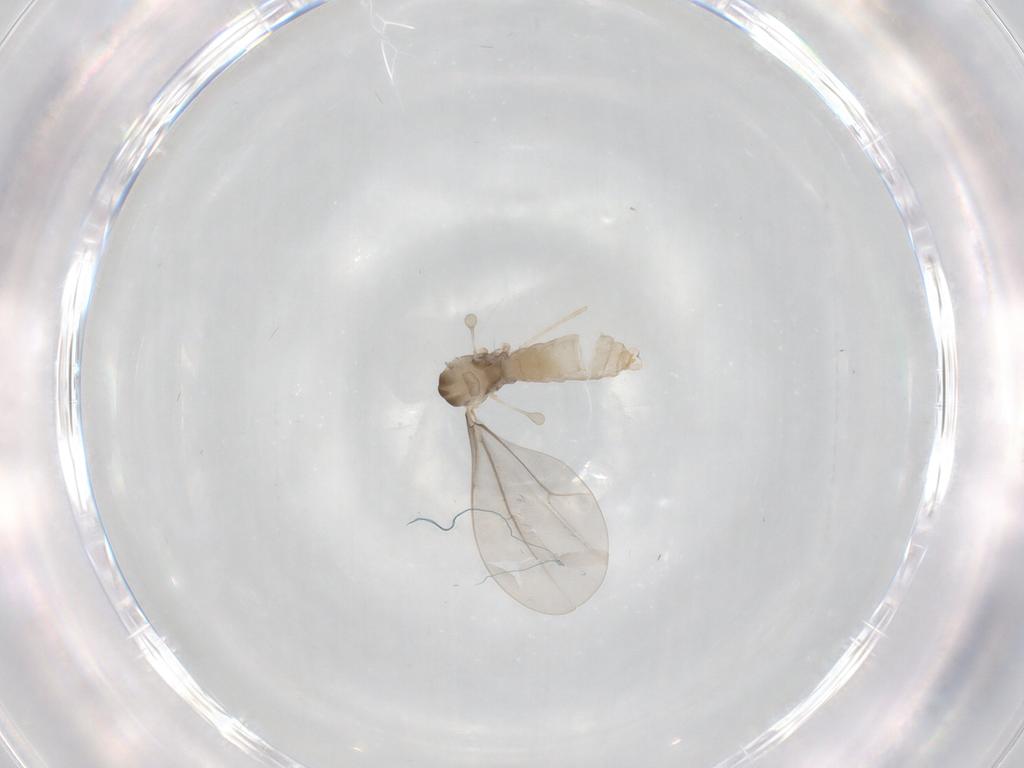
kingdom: Animalia
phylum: Arthropoda
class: Insecta
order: Diptera
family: Cecidomyiidae
